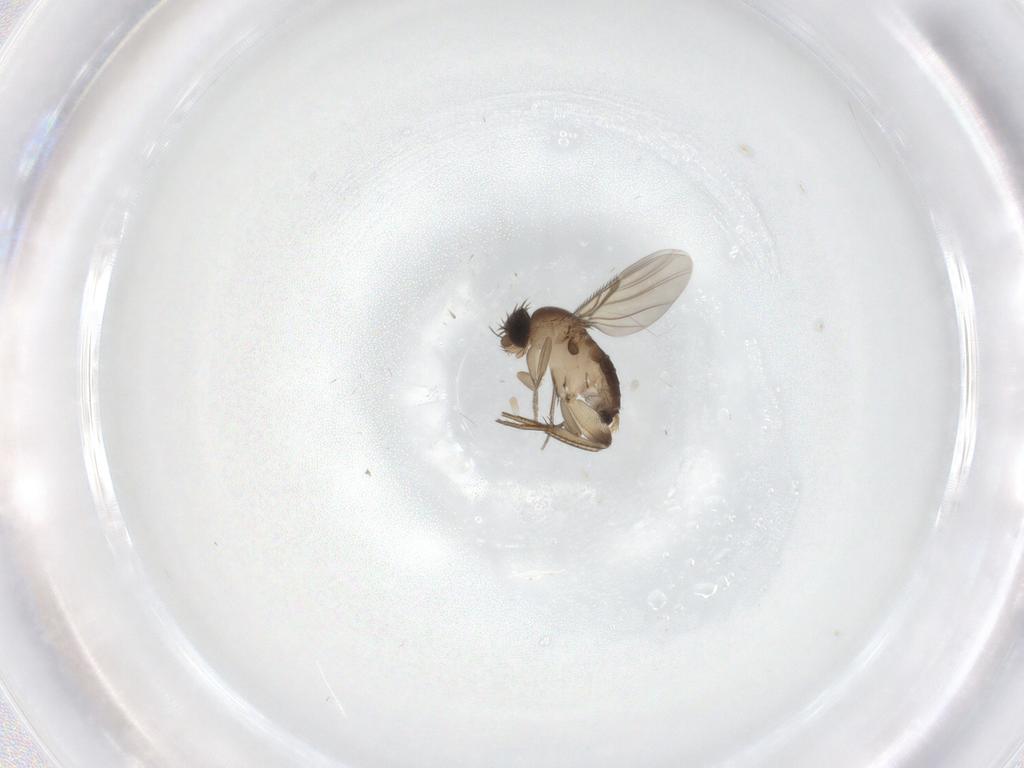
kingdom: Animalia
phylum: Arthropoda
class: Insecta
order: Diptera
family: Phoridae
